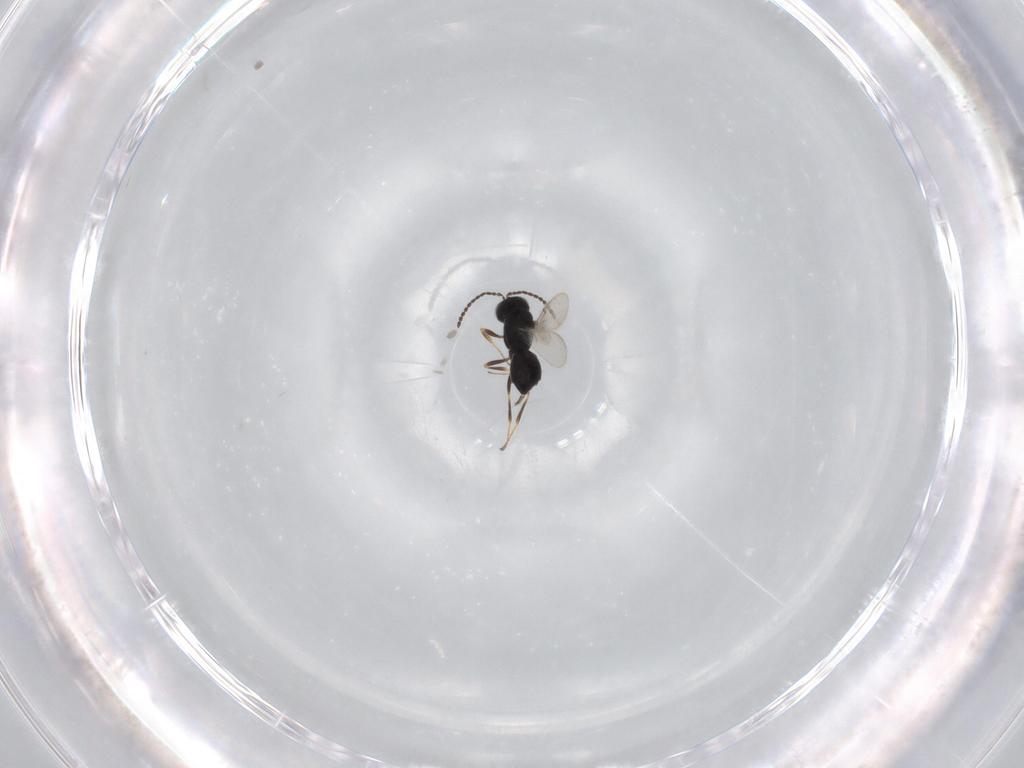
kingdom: Animalia
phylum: Arthropoda
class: Insecta
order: Hymenoptera
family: Scelionidae
